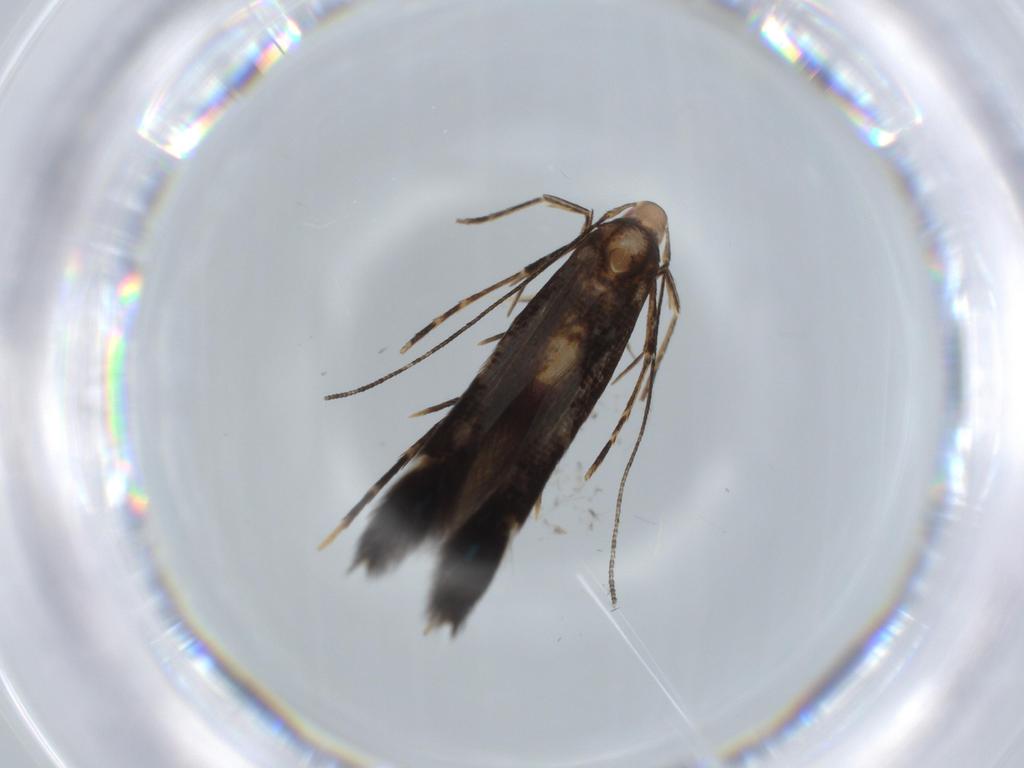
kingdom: Animalia
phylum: Arthropoda
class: Insecta
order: Lepidoptera
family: Cosmopterigidae
